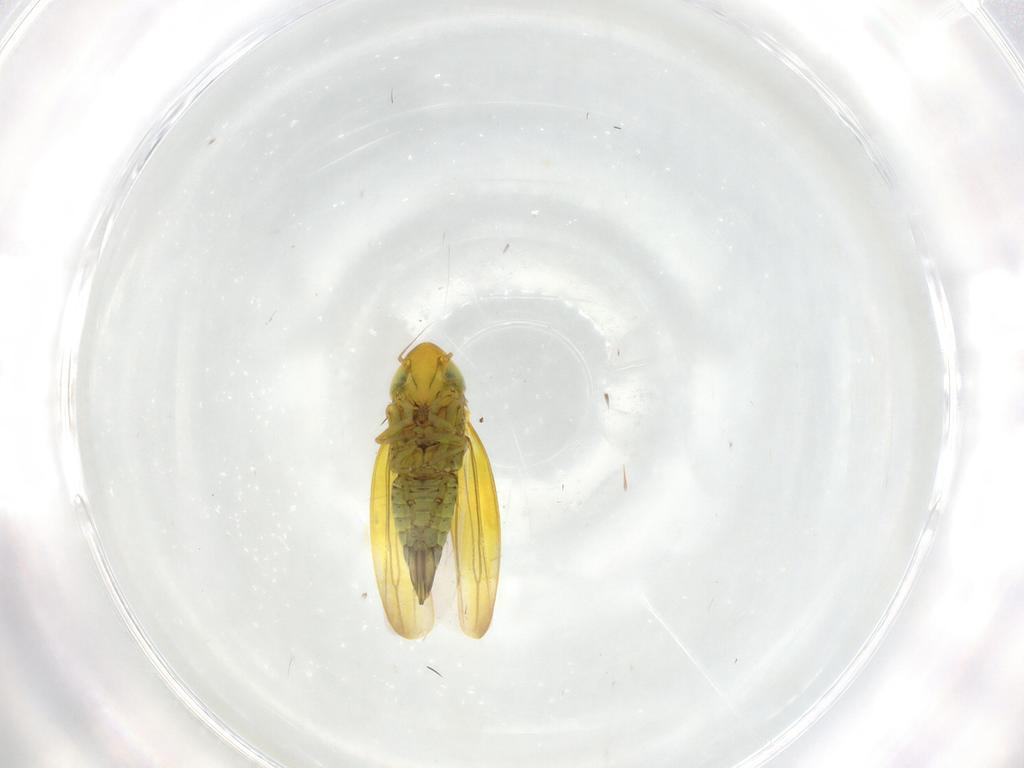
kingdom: Animalia
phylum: Arthropoda
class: Insecta
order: Hemiptera
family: Cicadellidae
